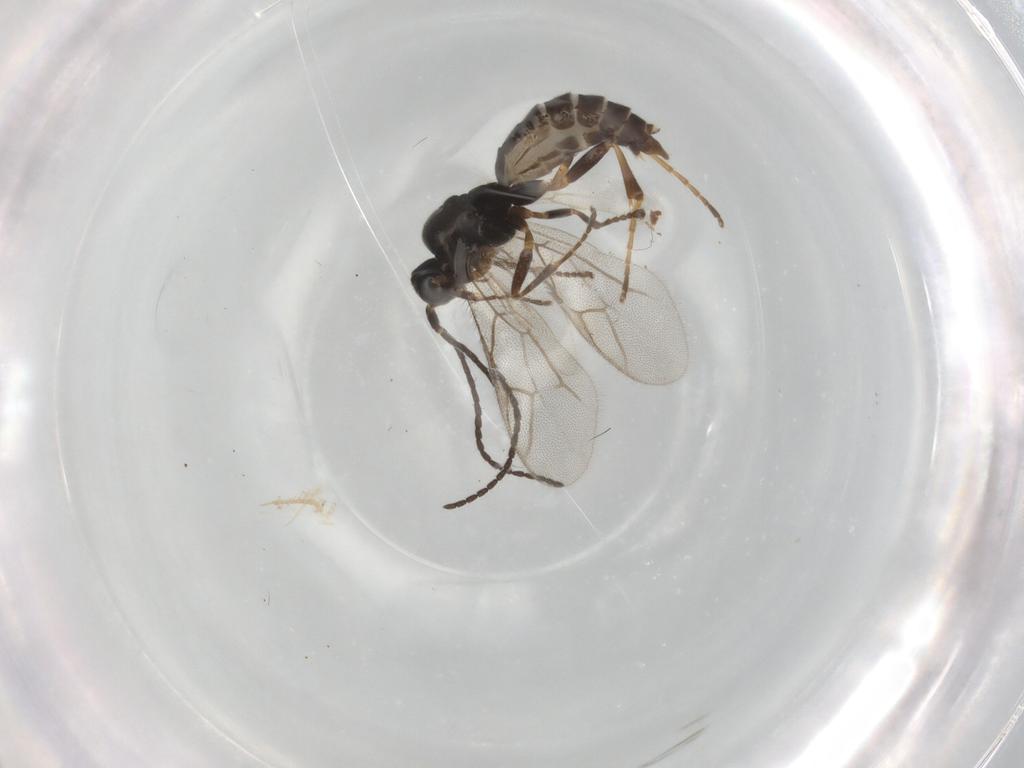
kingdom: Animalia
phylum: Arthropoda
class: Insecta
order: Hymenoptera
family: Ichneumonidae
